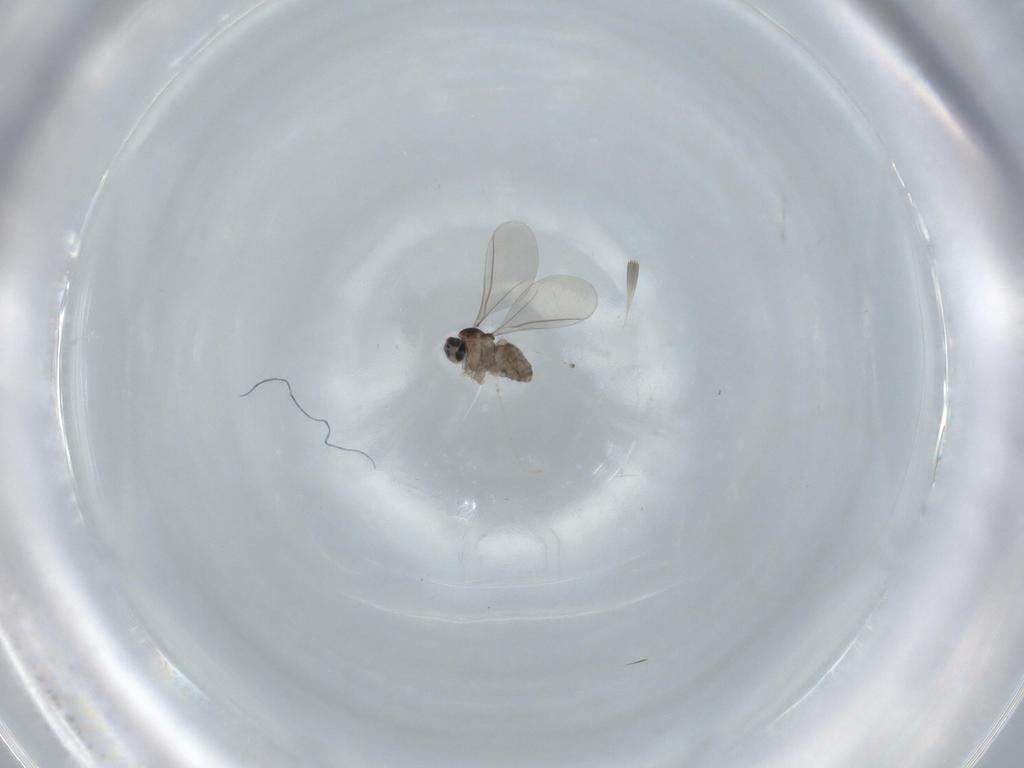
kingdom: Animalia
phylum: Arthropoda
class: Insecta
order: Diptera
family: Cecidomyiidae
